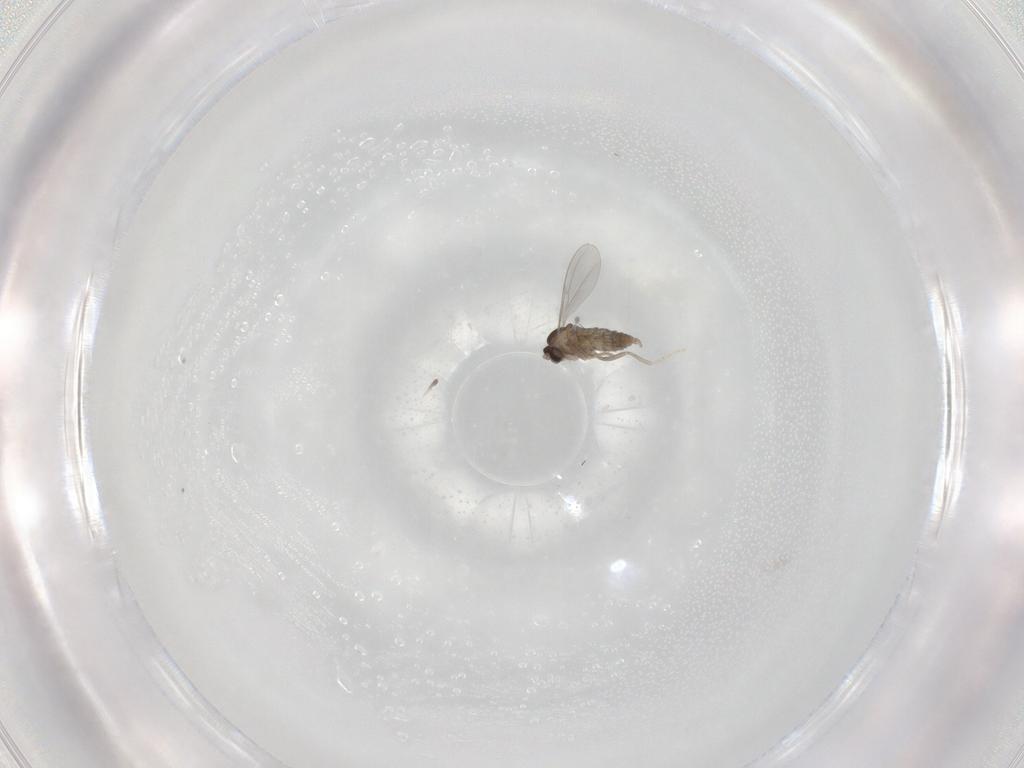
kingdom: Animalia
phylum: Arthropoda
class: Insecta
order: Diptera
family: Cecidomyiidae
